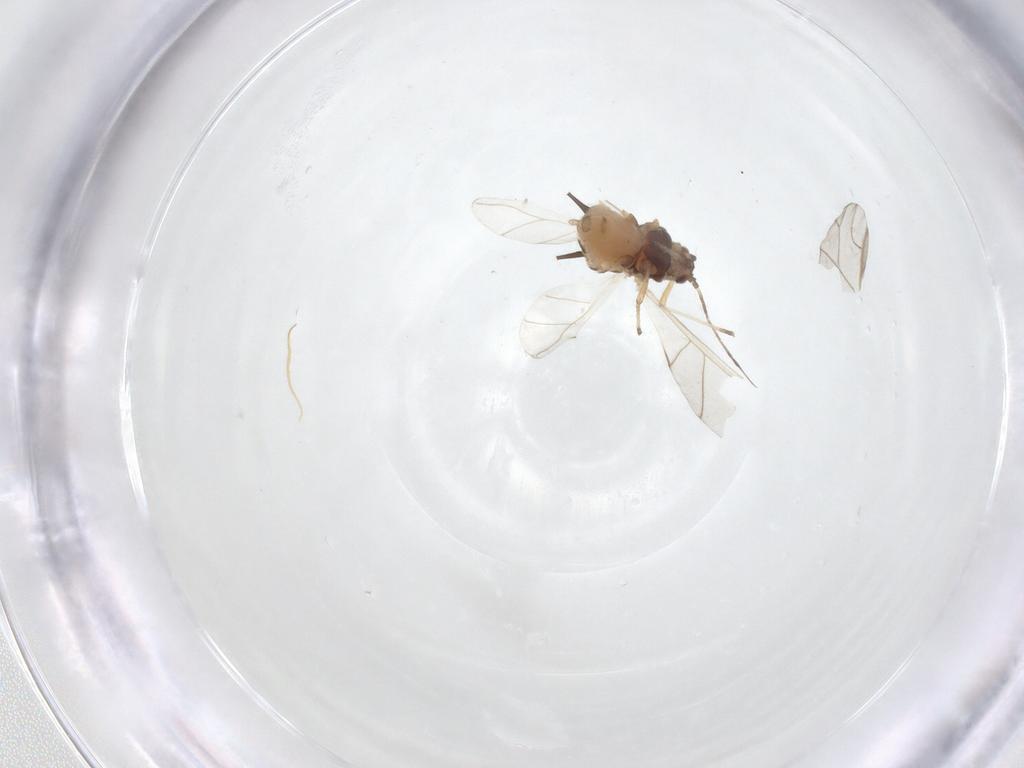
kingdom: Animalia
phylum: Arthropoda
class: Insecta
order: Hemiptera
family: Aphididae
